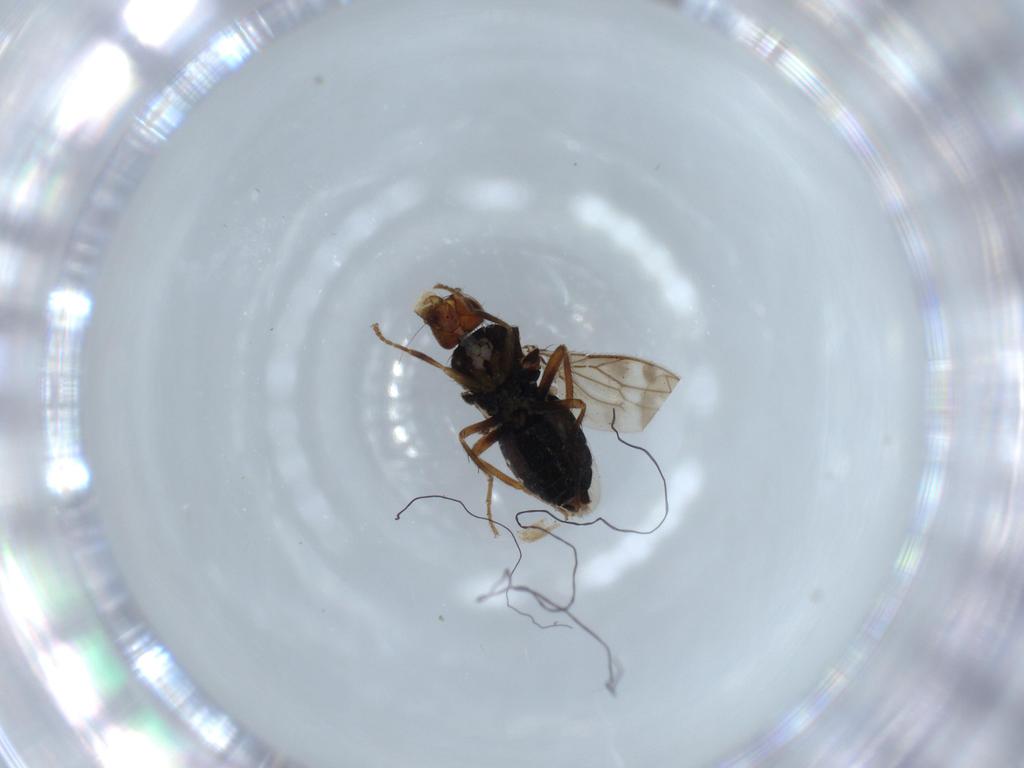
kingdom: Animalia
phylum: Arthropoda
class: Insecta
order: Diptera
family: Sphaeroceridae
